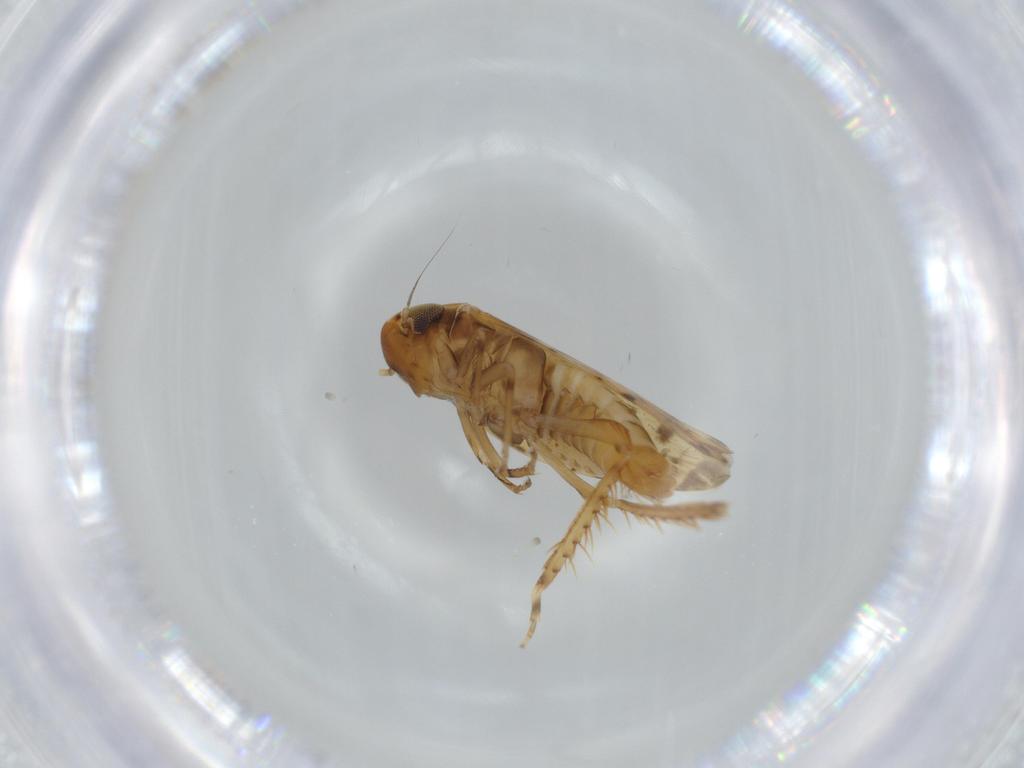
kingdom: Animalia
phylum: Arthropoda
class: Insecta
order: Hemiptera
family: Cicadellidae
